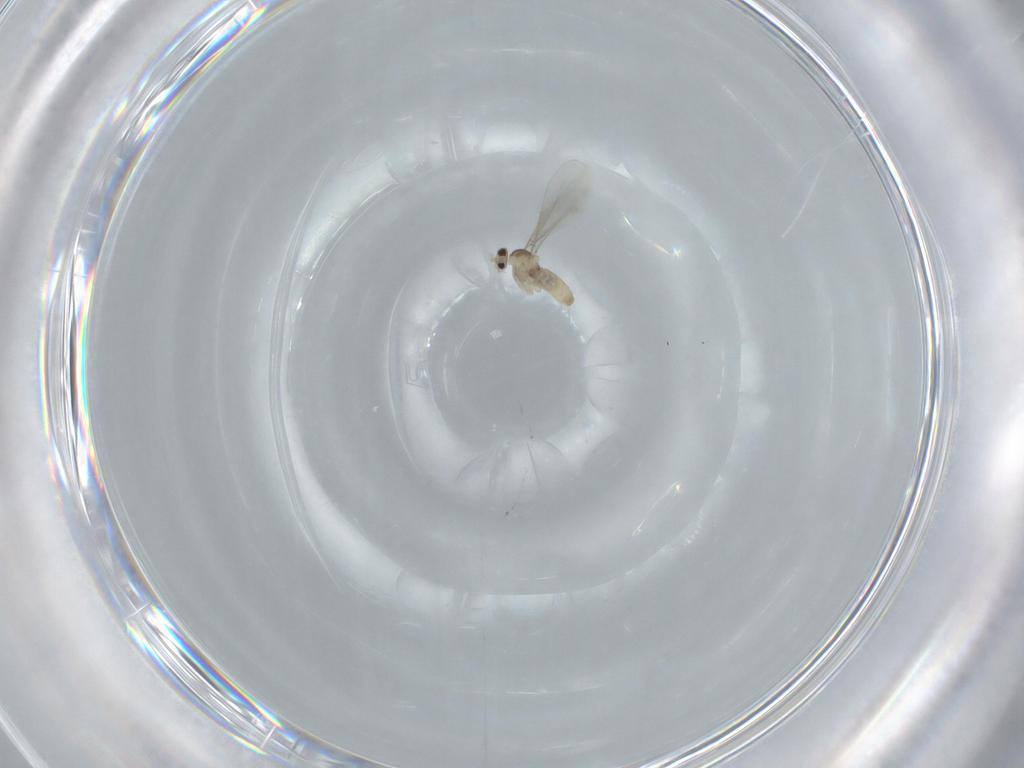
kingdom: Animalia
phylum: Arthropoda
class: Insecta
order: Diptera
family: Cecidomyiidae
